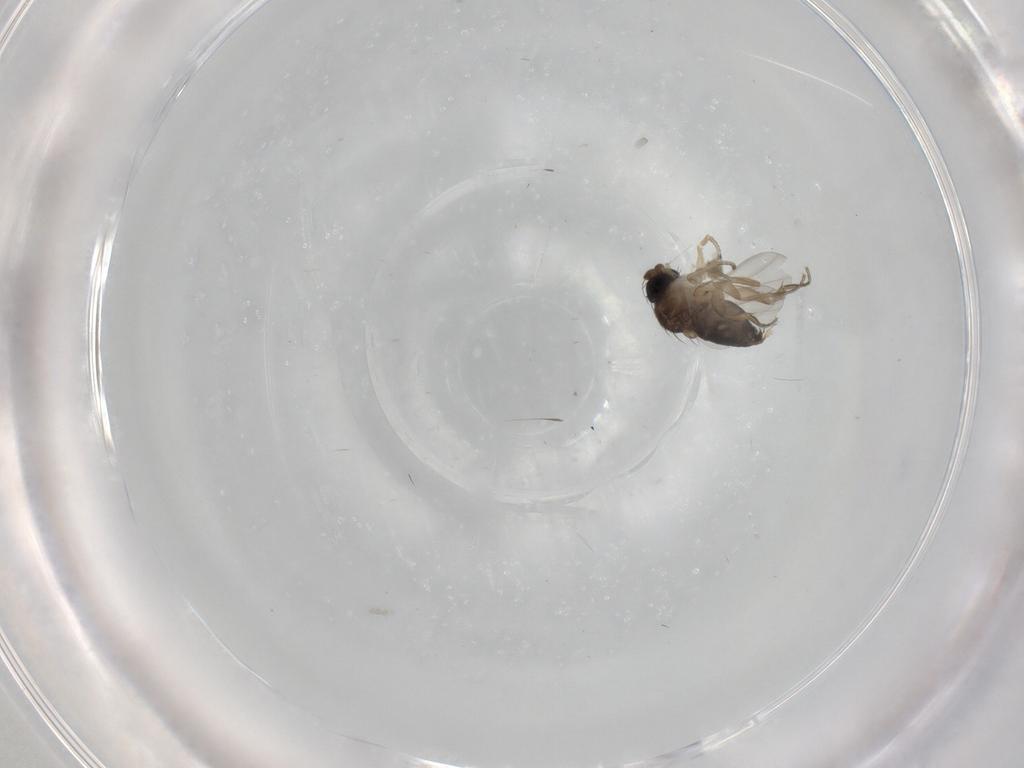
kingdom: Animalia
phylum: Arthropoda
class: Insecta
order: Diptera
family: Phoridae
